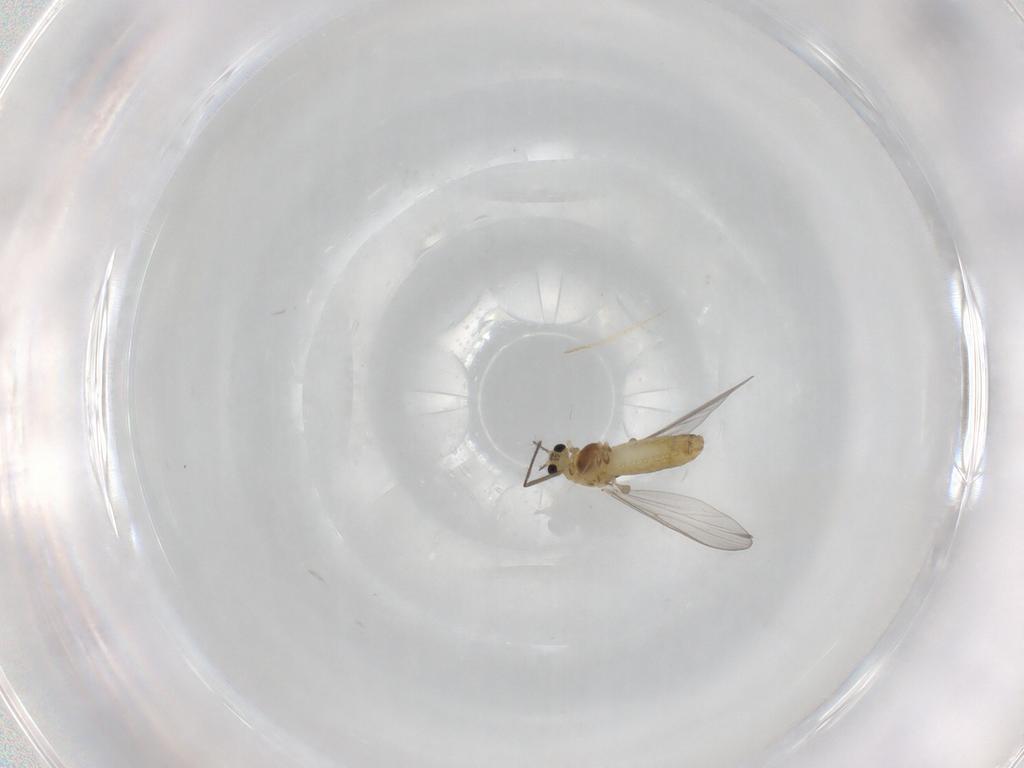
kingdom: Animalia
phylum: Arthropoda
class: Insecta
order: Diptera
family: Chironomidae
